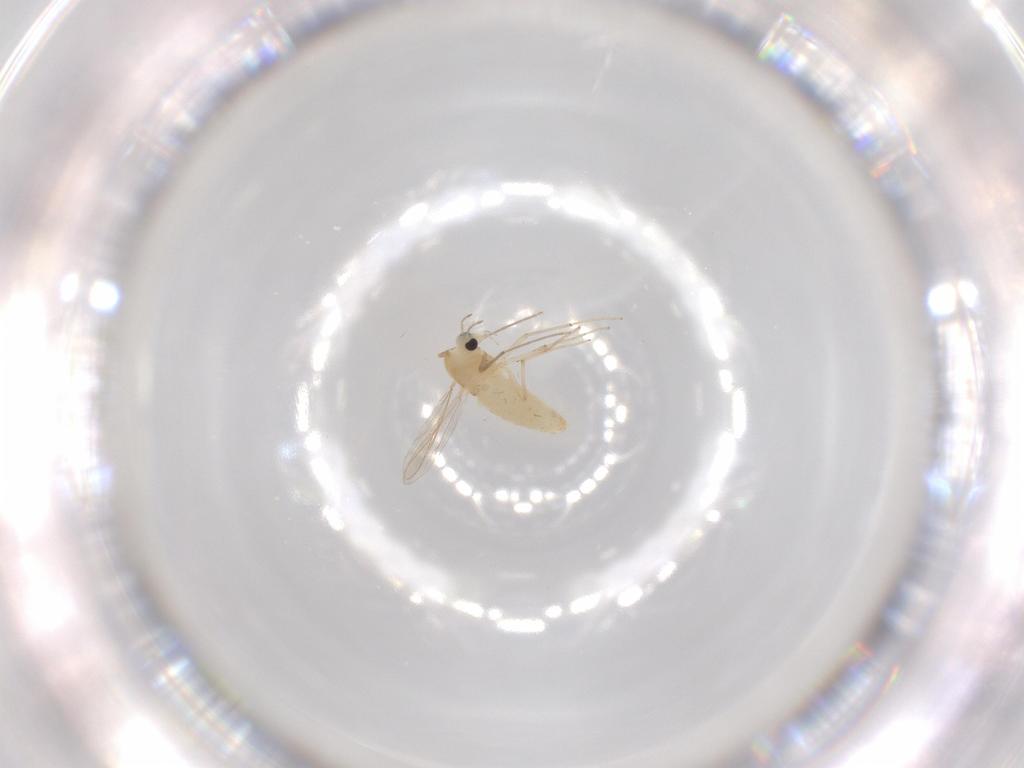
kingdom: Animalia
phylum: Arthropoda
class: Insecta
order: Diptera
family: Chironomidae
